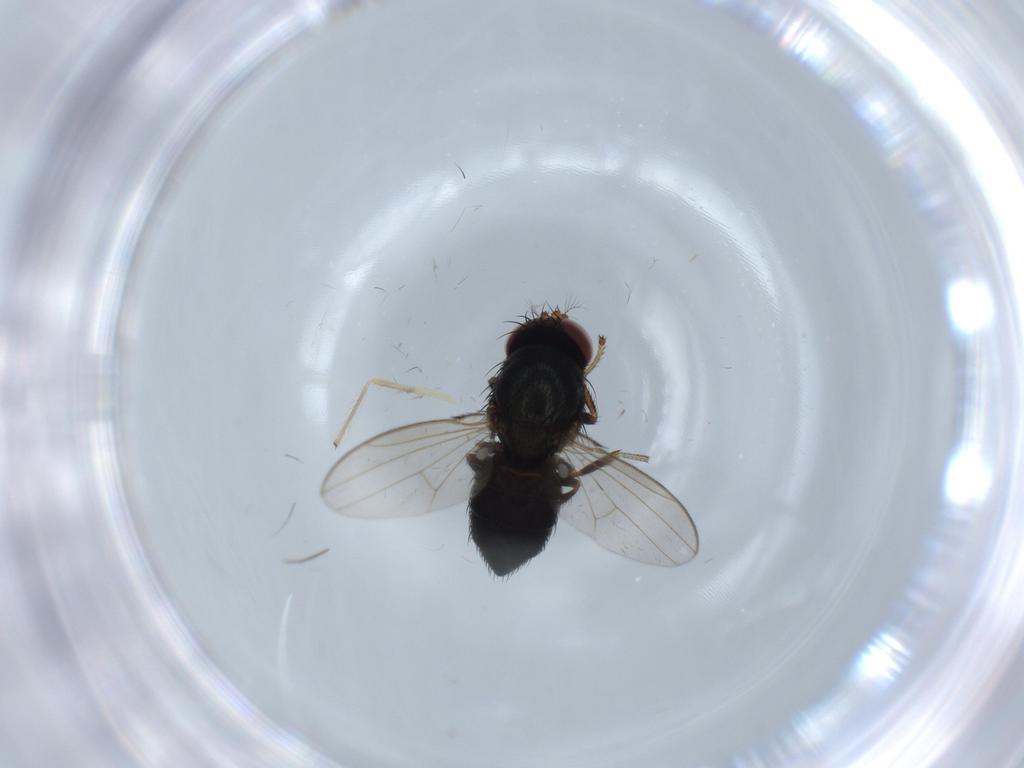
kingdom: Animalia
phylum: Arthropoda
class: Insecta
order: Diptera
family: Ephydridae
